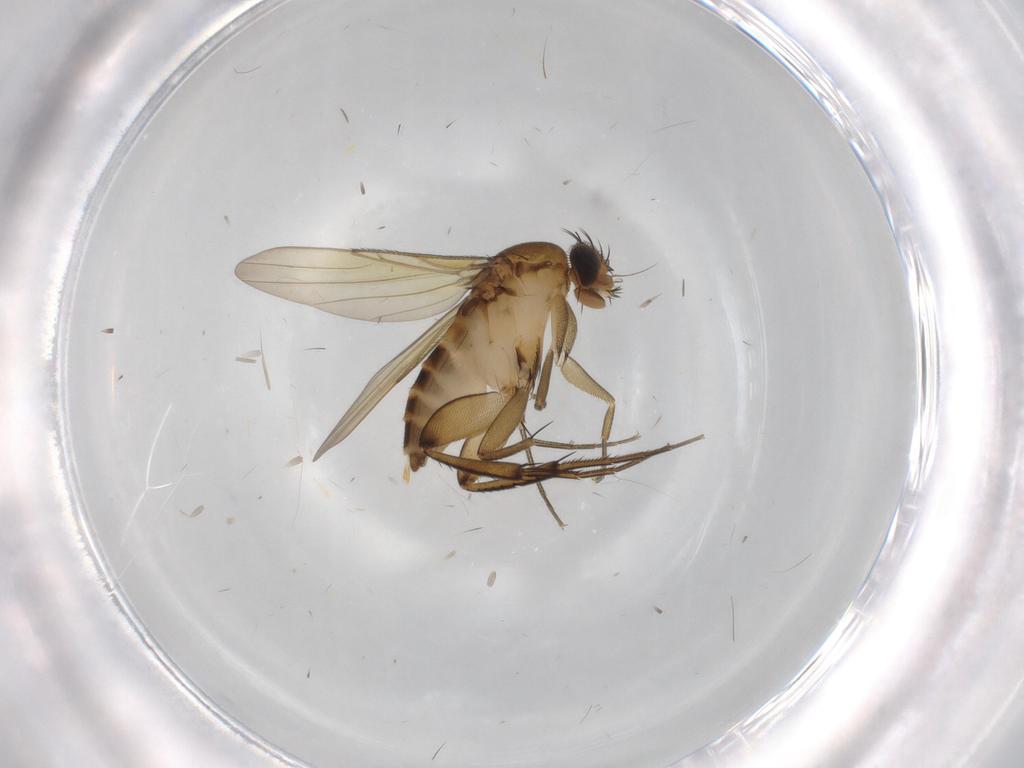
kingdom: Animalia
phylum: Arthropoda
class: Insecta
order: Diptera
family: Phoridae
